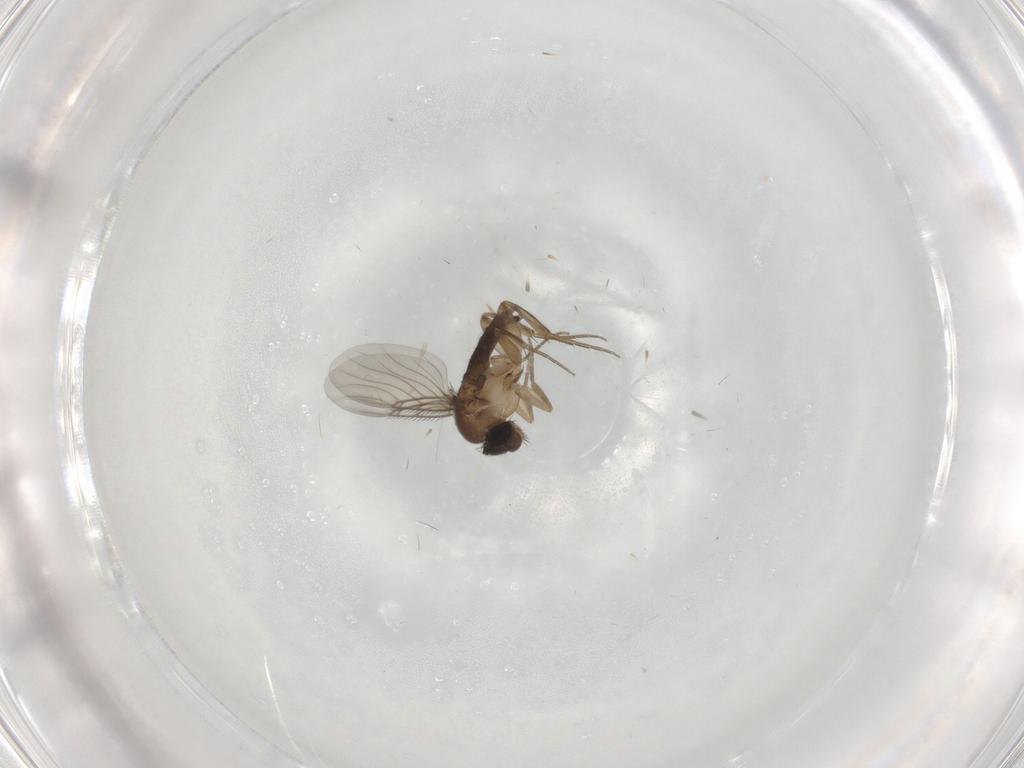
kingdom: Animalia
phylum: Arthropoda
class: Insecta
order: Diptera
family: Phoridae
